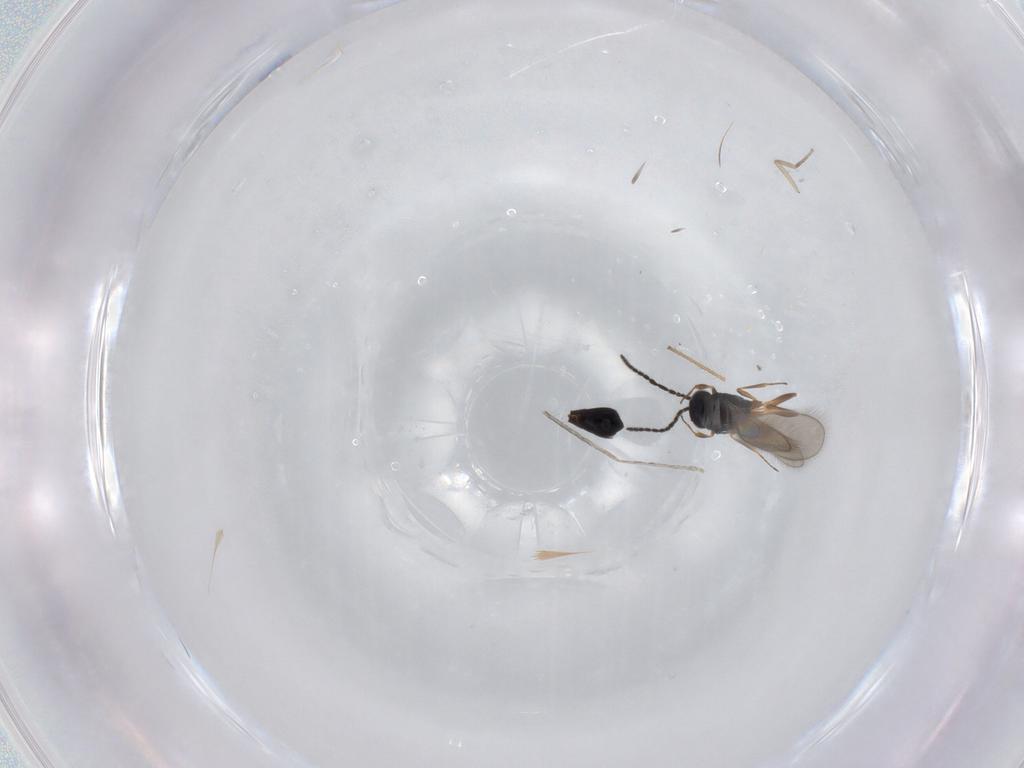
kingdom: Animalia
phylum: Arthropoda
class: Insecta
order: Hymenoptera
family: Scelionidae
